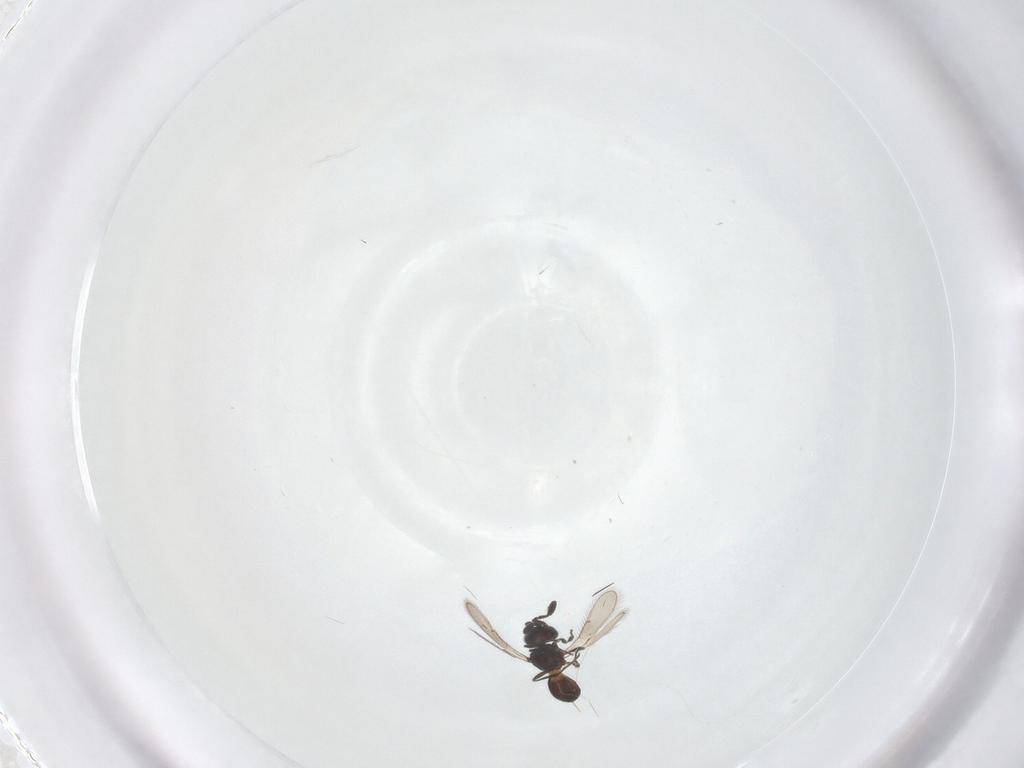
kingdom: Animalia
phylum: Arthropoda
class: Insecta
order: Hymenoptera
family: Scelionidae
